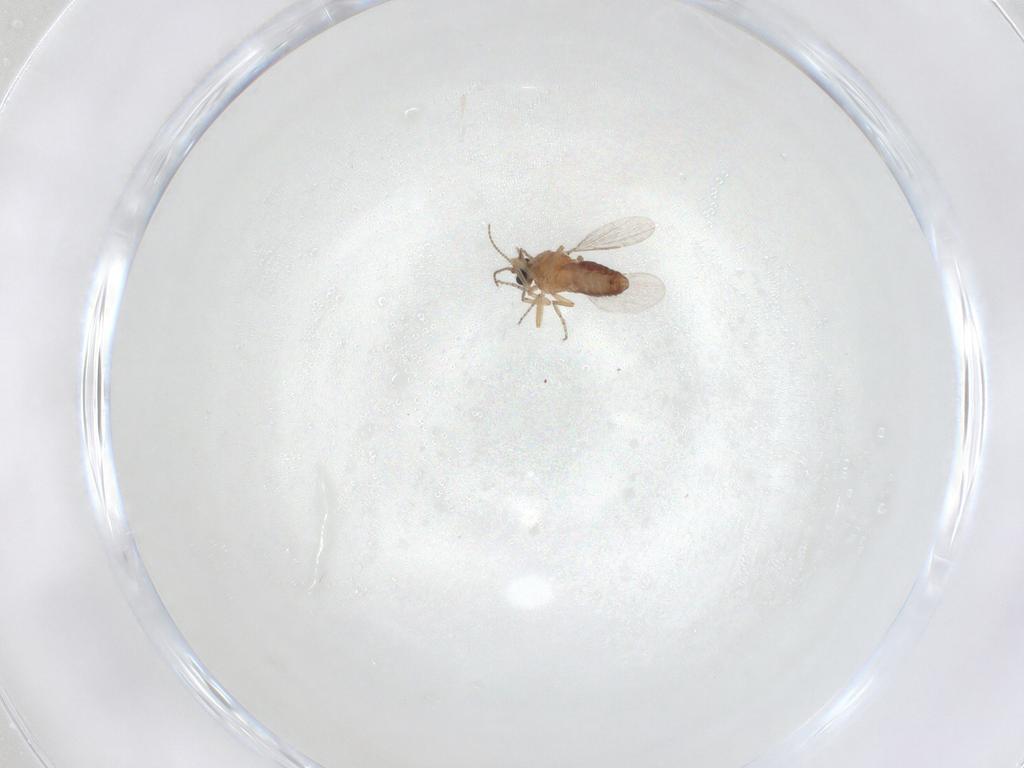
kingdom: Animalia
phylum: Arthropoda
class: Insecta
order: Diptera
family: Ceratopogonidae
